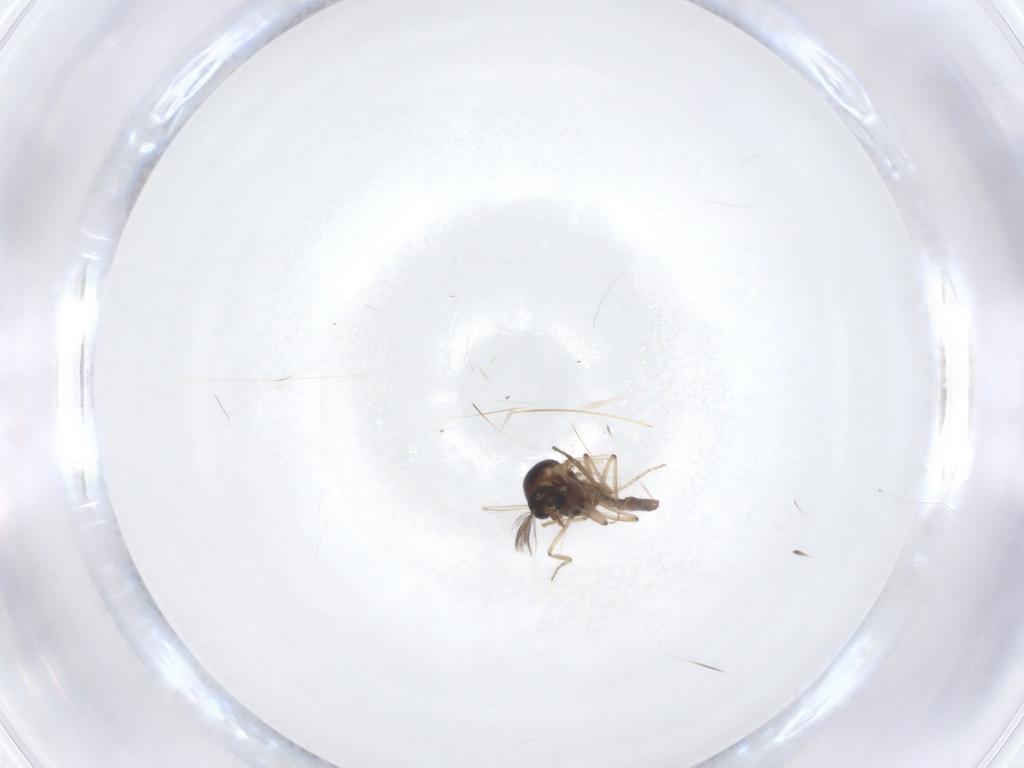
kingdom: Animalia
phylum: Arthropoda
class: Insecta
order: Diptera
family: Ceratopogonidae
